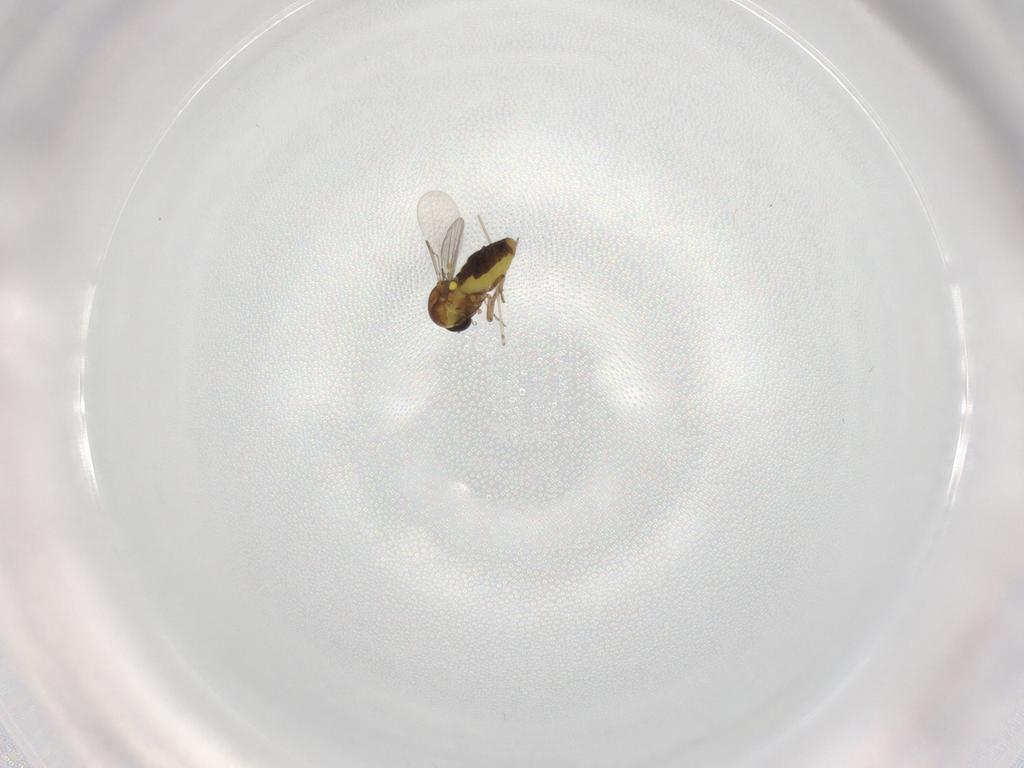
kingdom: Animalia
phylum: Arthropoda
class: Insecta
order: Diptera
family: Ceratopogonidae
